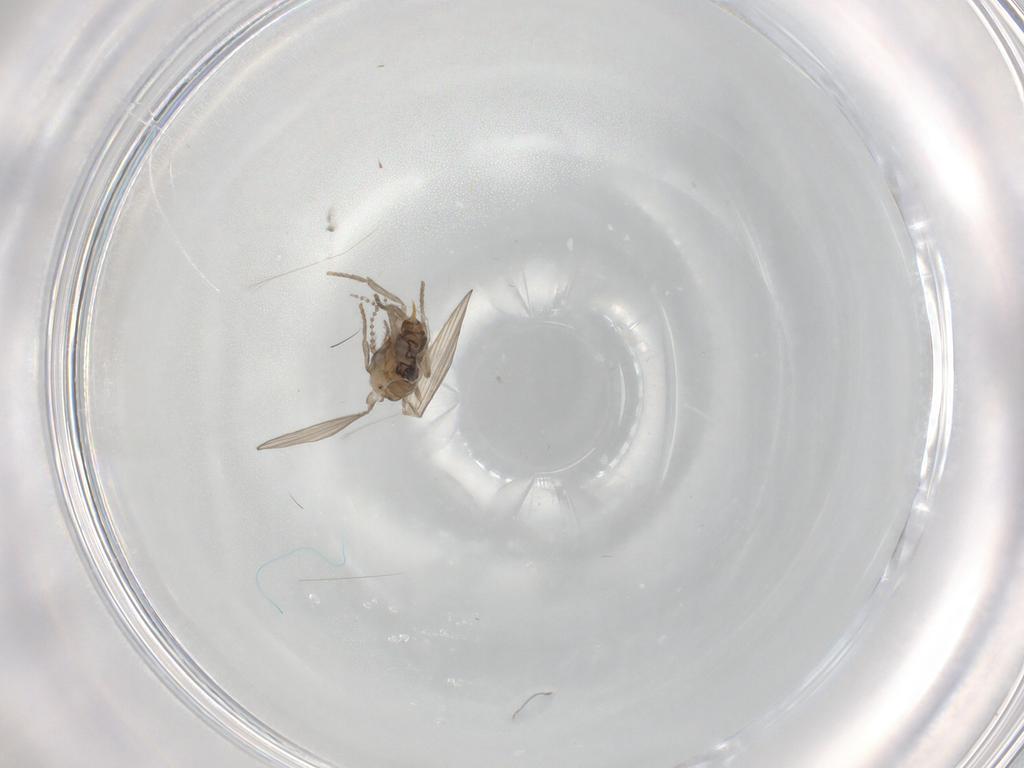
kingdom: Animalia
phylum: Arthropoda
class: Insecta
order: Diptera
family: Psychodidae
